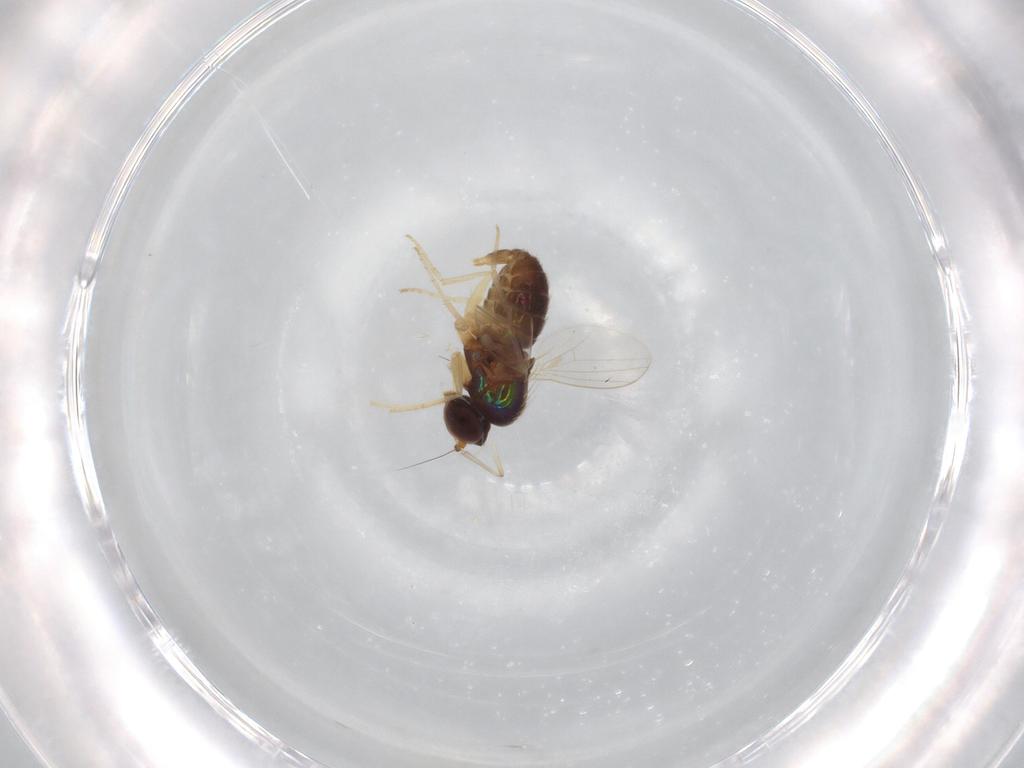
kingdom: Animalia
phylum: Arthropoda
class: Insecta
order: Diptera
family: Dolichopodidae
